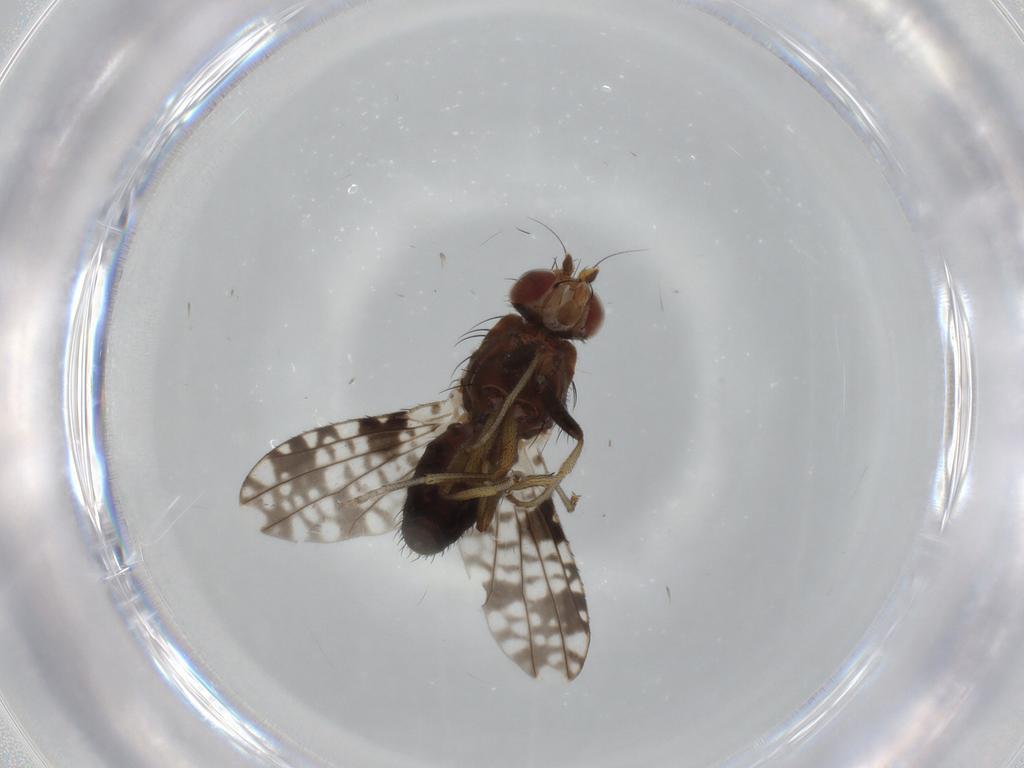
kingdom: Animalia
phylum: Arthropoda
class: Insecta
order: Diptera
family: Tephritidae
